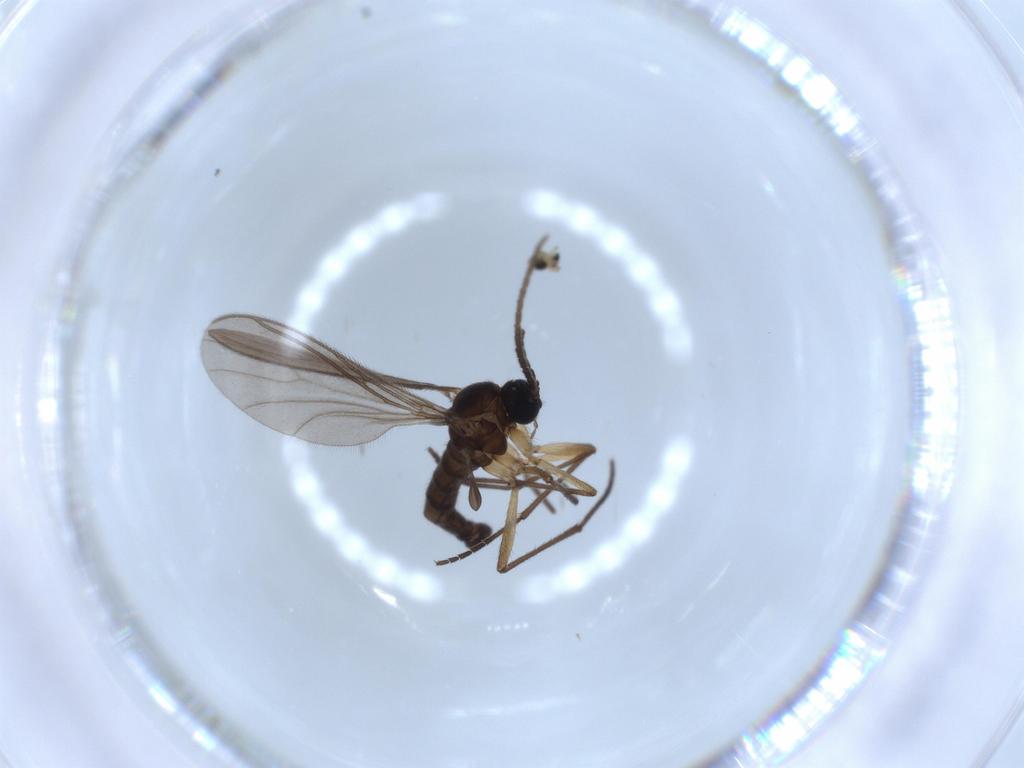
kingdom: Animalia
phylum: Arthropoda
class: Insecta
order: Diptera
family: Chironomidae
